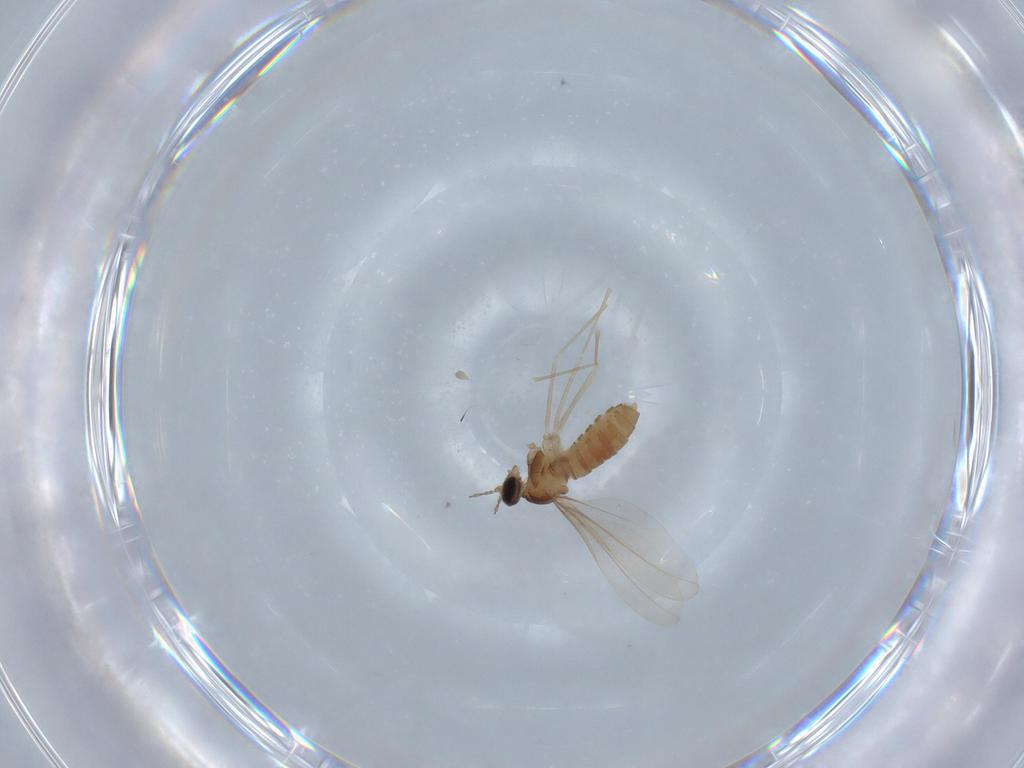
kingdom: Animalia
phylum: Arthropoda
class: Insecta
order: Diptera
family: Cecidomyiidae
